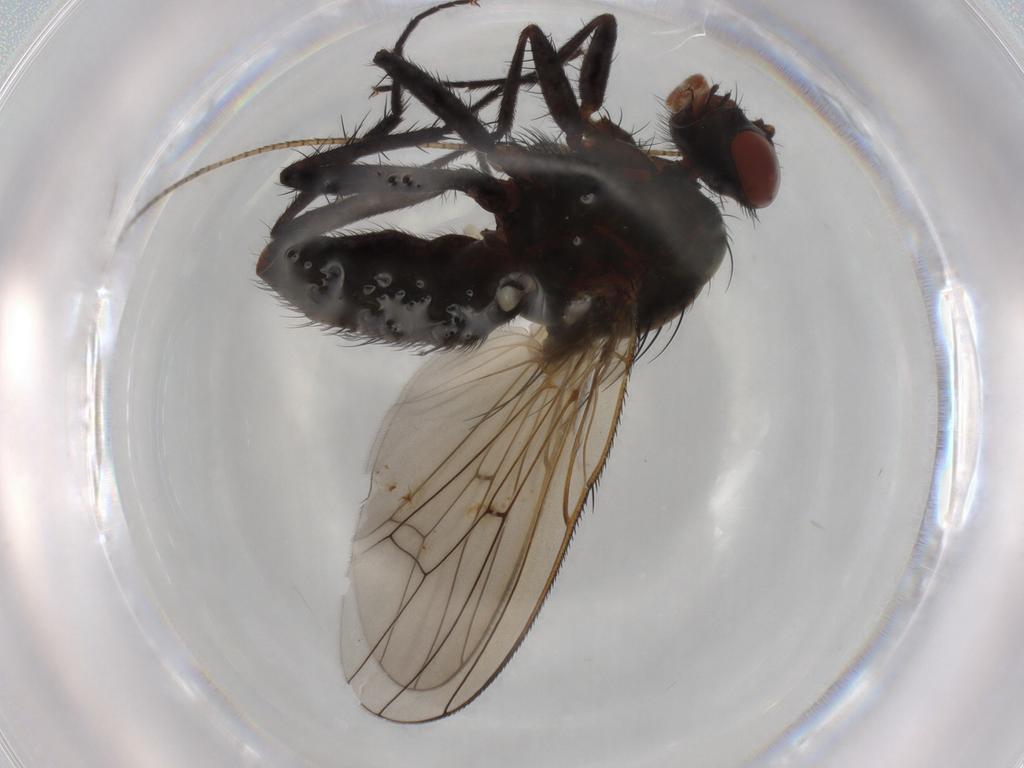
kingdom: Animalia
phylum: Arthropoda
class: Insecta
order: Diptera
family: Anthomyiidae
